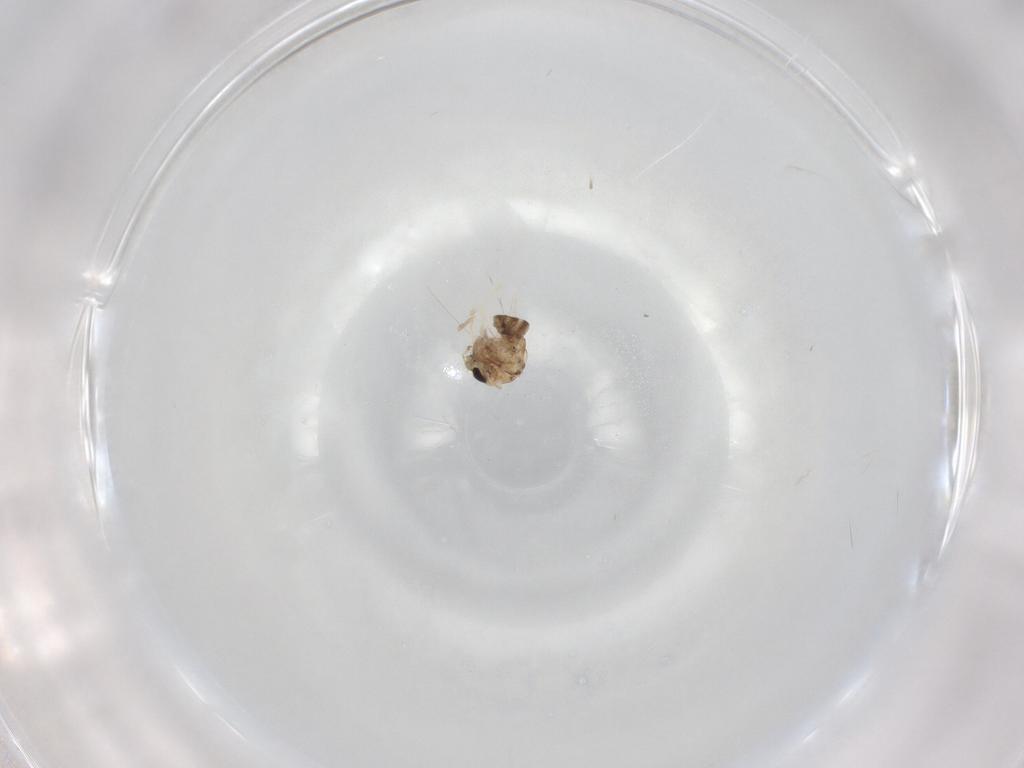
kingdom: Animalia
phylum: Arthropoda
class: Insecta
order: Diptera
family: Chironomidae
